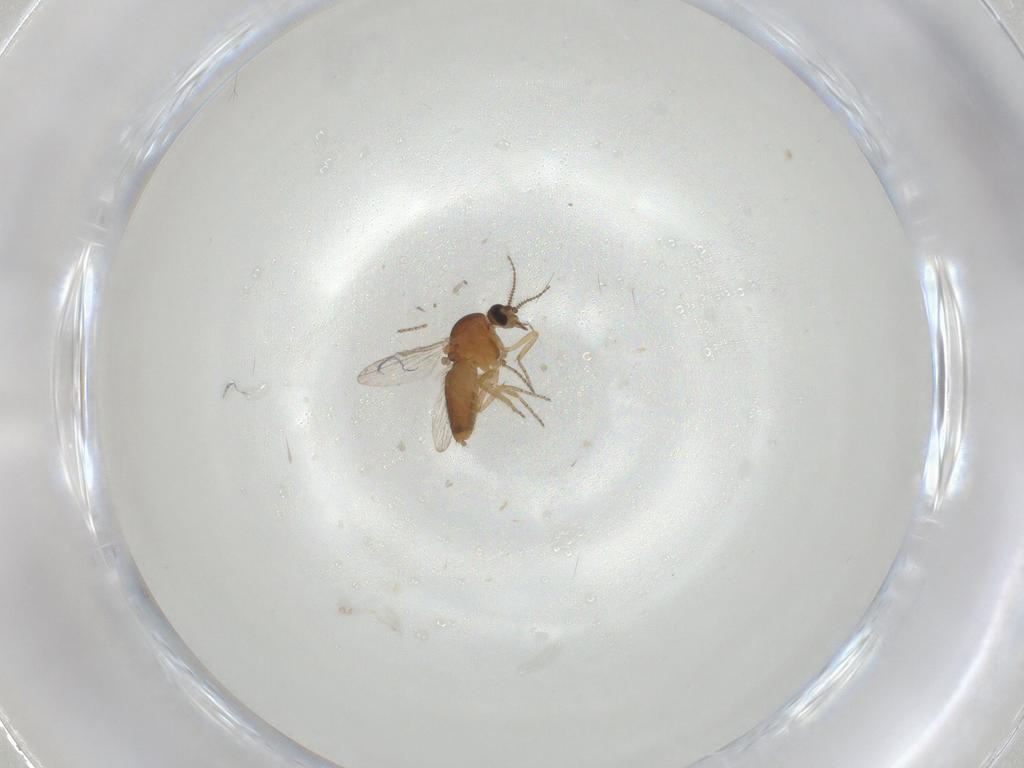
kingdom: Animalia
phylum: Arthropoda
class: Insecta
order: Diptera
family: Ceratopogonidae
